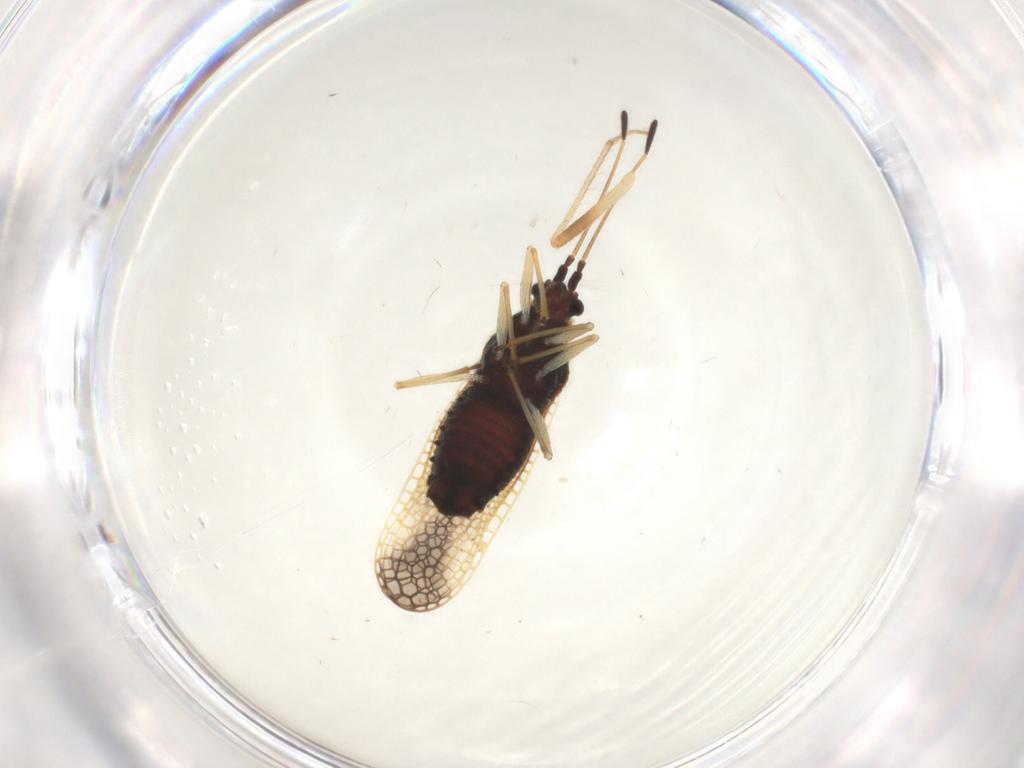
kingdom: Animalia
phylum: Arthropoda
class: Insecta
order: Hemiptera
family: Tingidae
